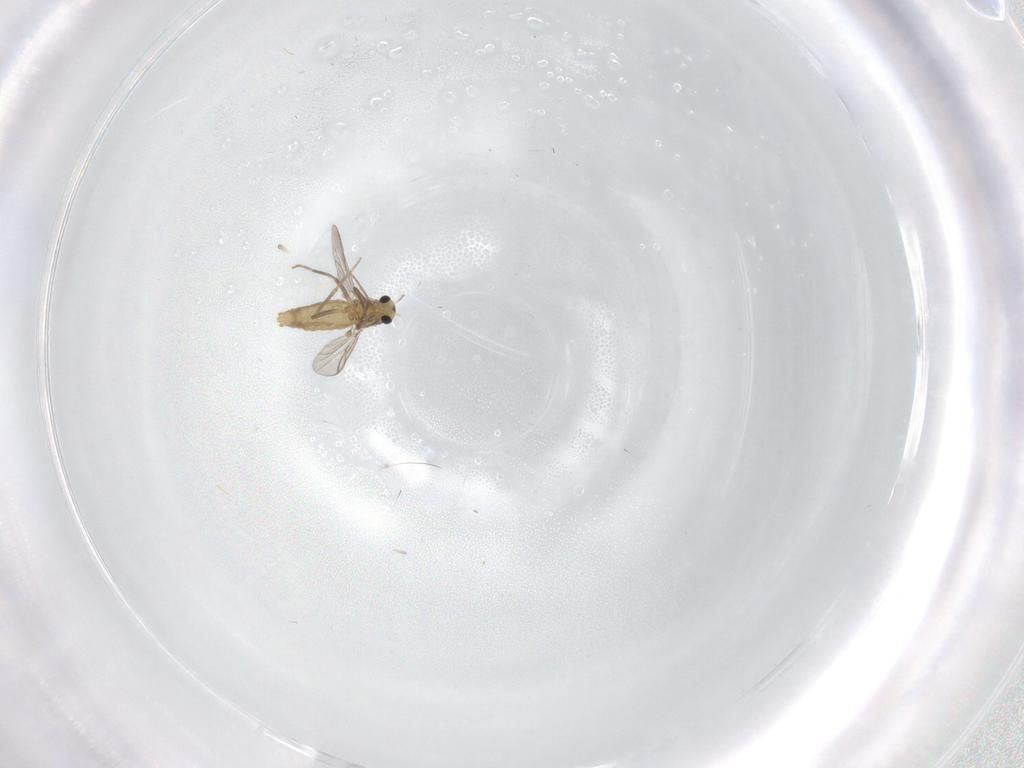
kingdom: Animalia
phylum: Arthropoda
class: Insecta
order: Diptera
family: Chironomidae
